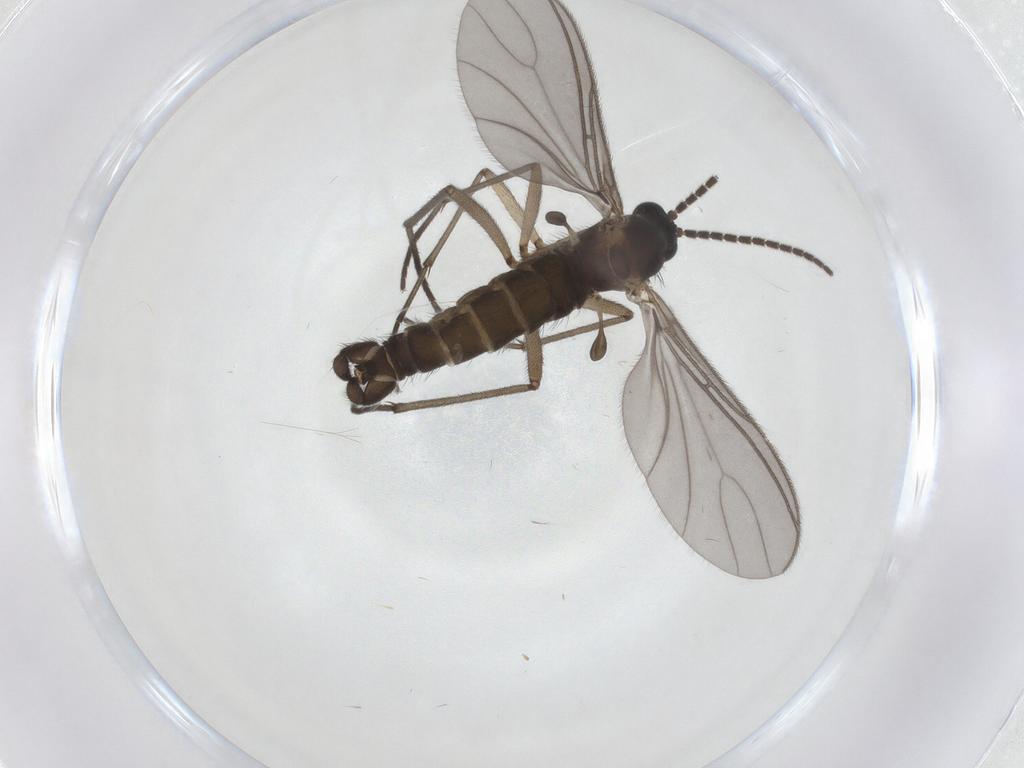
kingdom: Animalia
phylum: Arthropoda
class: Insecta
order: Diptera
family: Sciaridae
